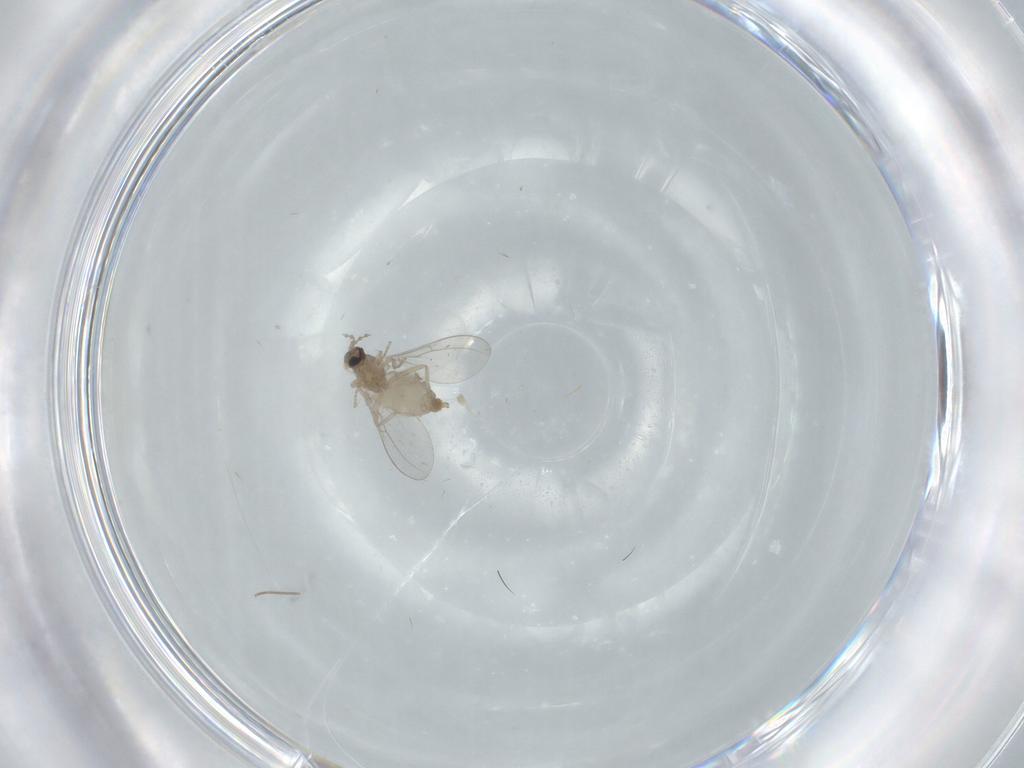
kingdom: Animalia
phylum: Arthropoda
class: Insecta
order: Diptera
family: Cecidomyiidae
